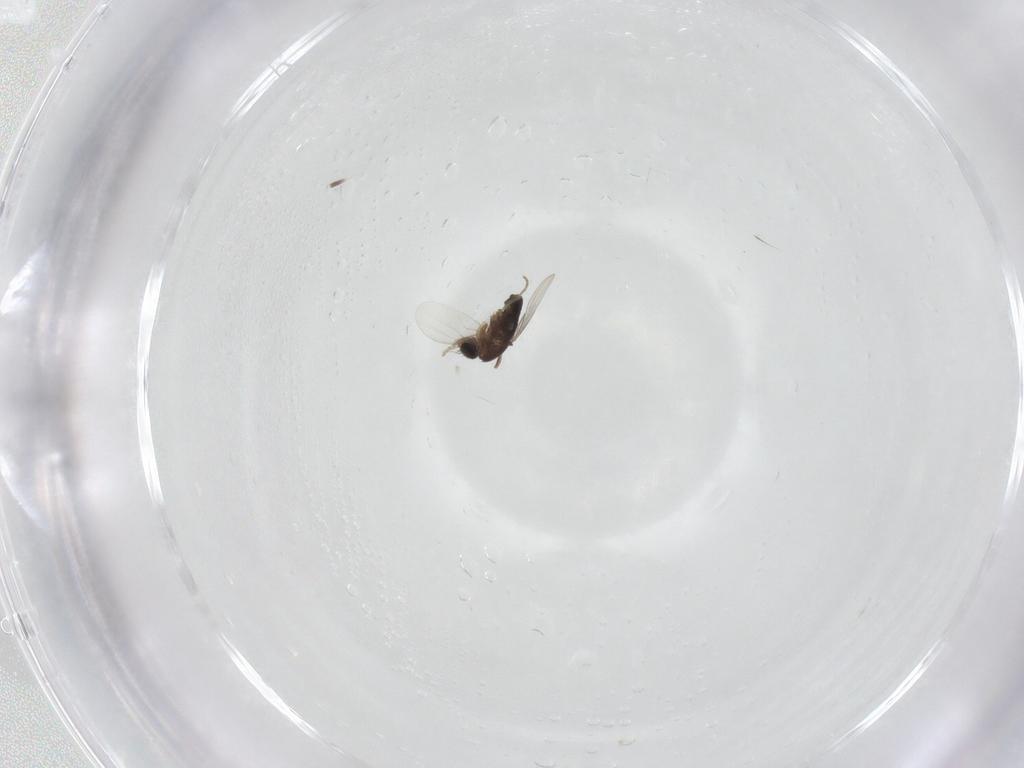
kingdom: Animalia
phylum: Arthropoda
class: Insecta
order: Diptera
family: Phoridae
